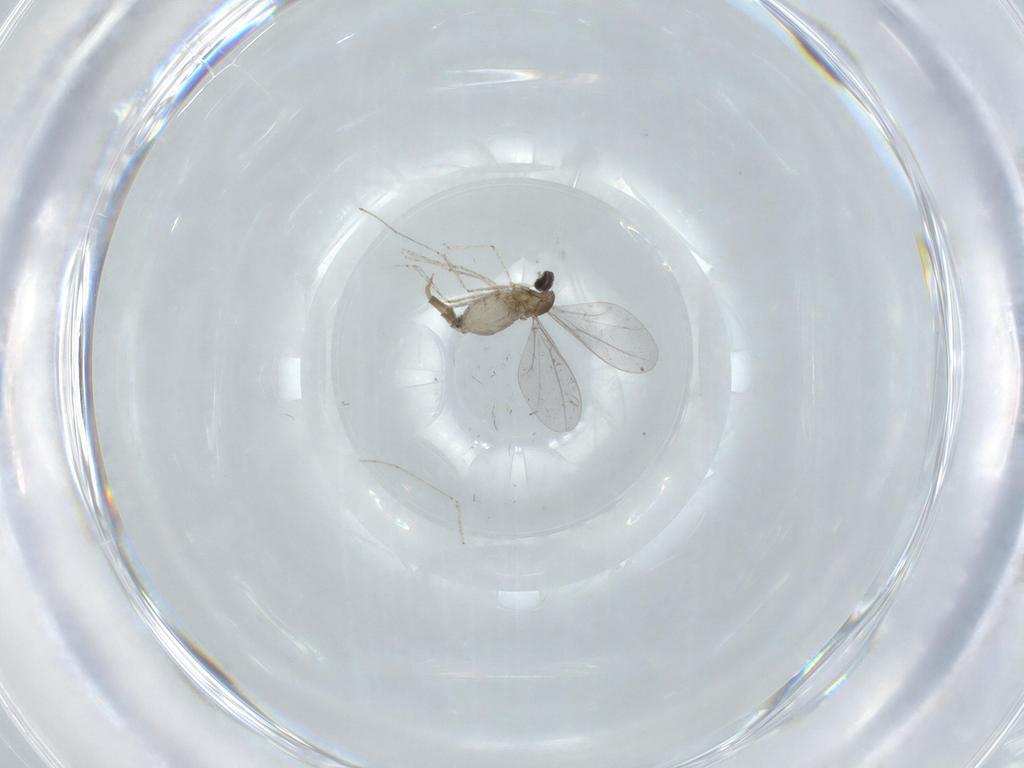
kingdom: Animalia
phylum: Arthropoda
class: Insecta
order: Diptera
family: Cecidomyiidae
